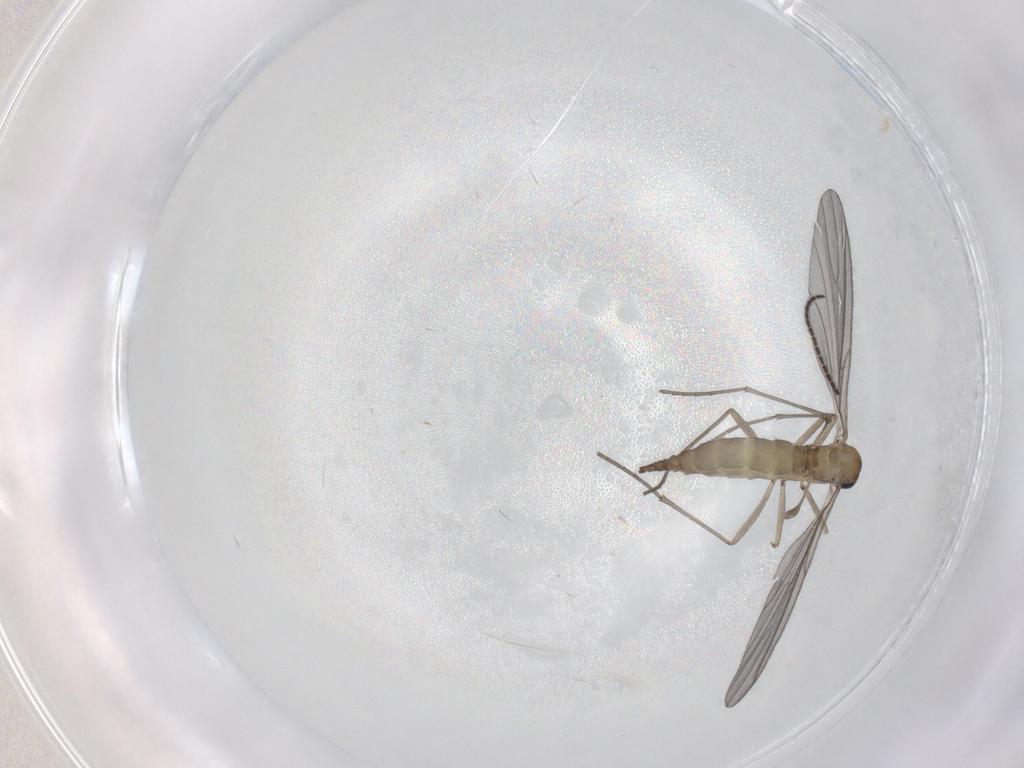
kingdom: Animalia
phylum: Arthropoda
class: Insecta
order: Diptera
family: Sciaridae
